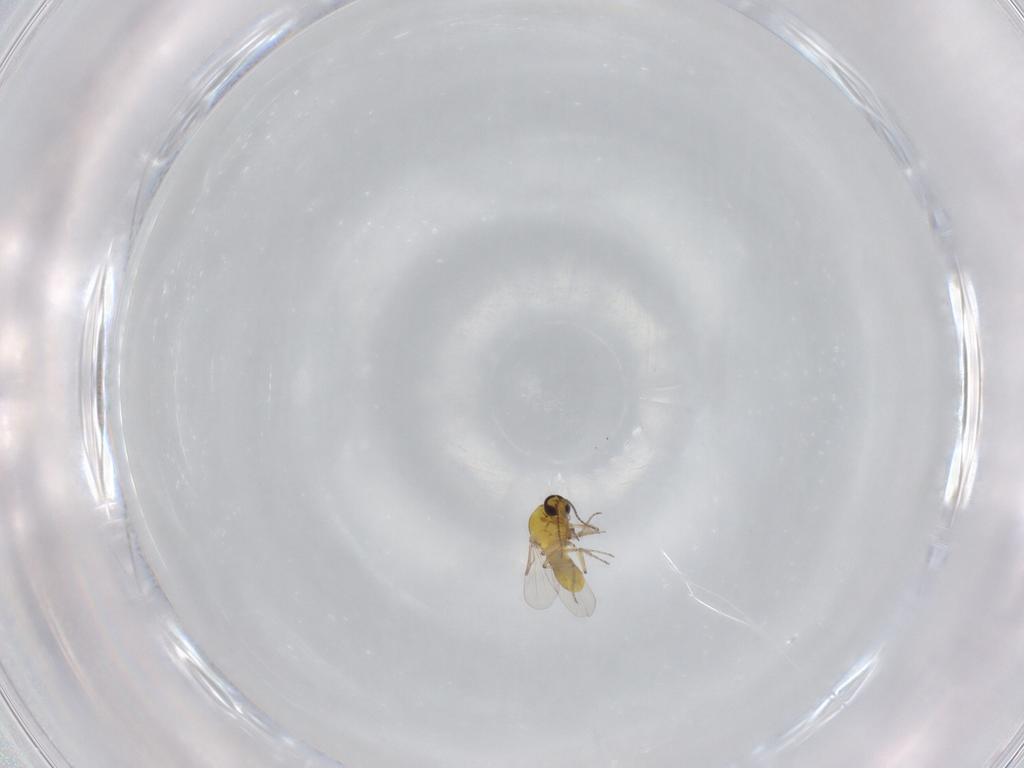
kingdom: Animalia
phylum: Arthropoda
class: Insecta
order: Diptera
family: Ceratopogonidae
